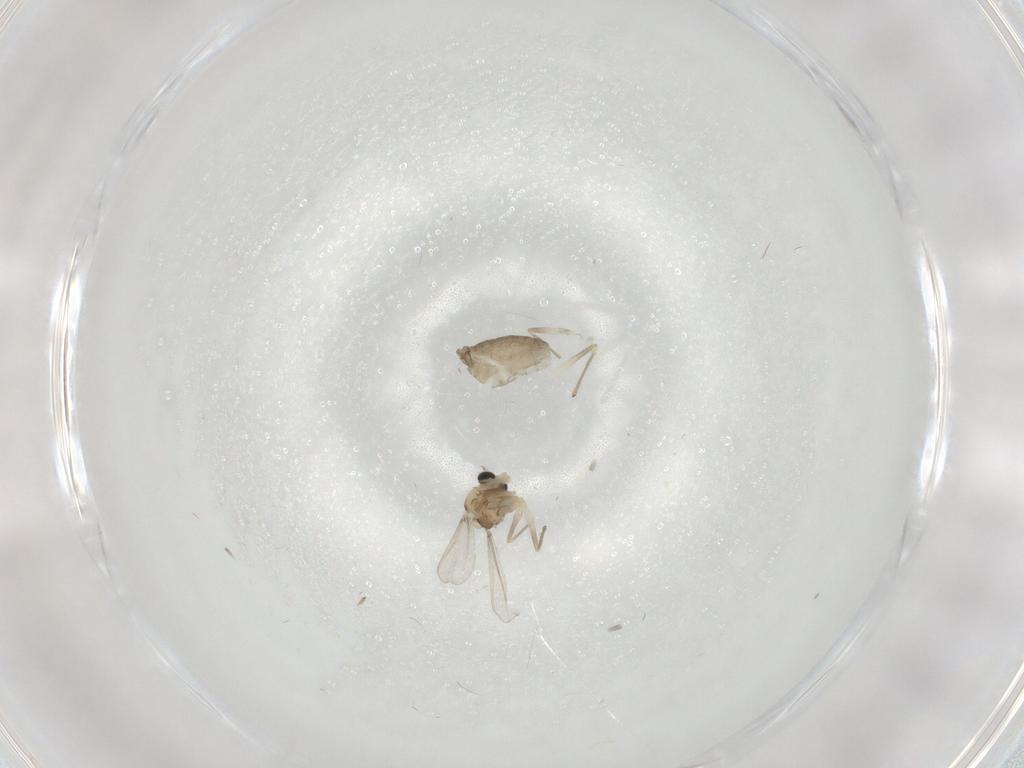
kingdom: Animalia
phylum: Arthropoda
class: Insecta
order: Diptera
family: Chironomidae
